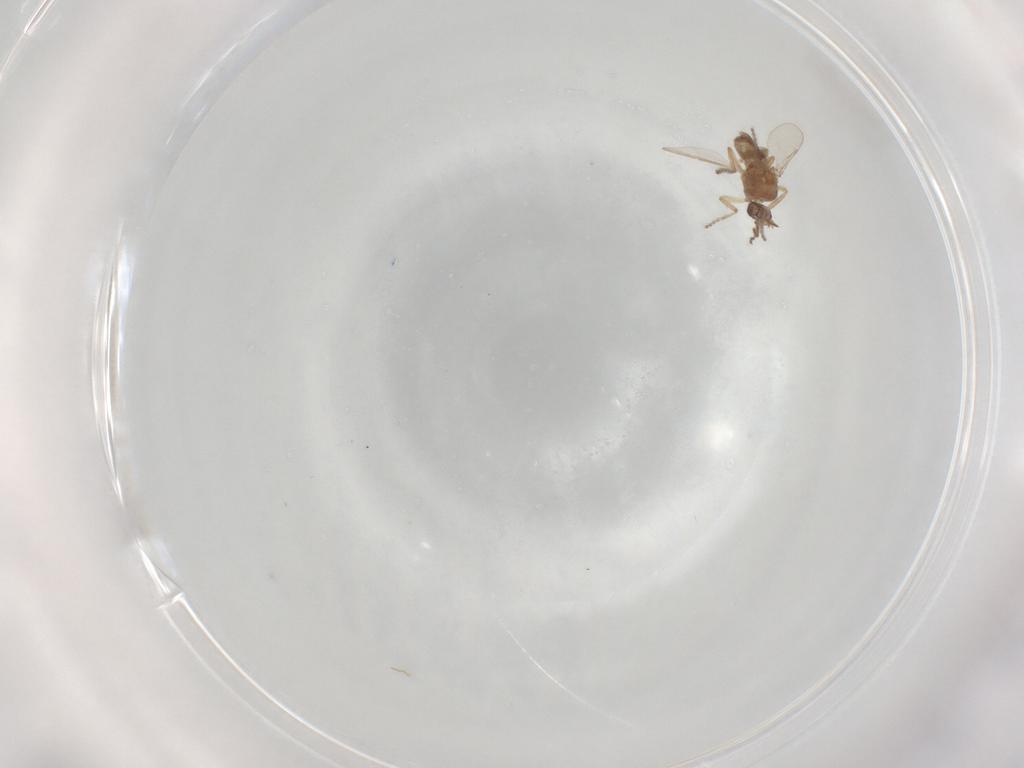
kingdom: Animalia
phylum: Arthropoda
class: Insecta
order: Diptera
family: Ceratopogonidae
